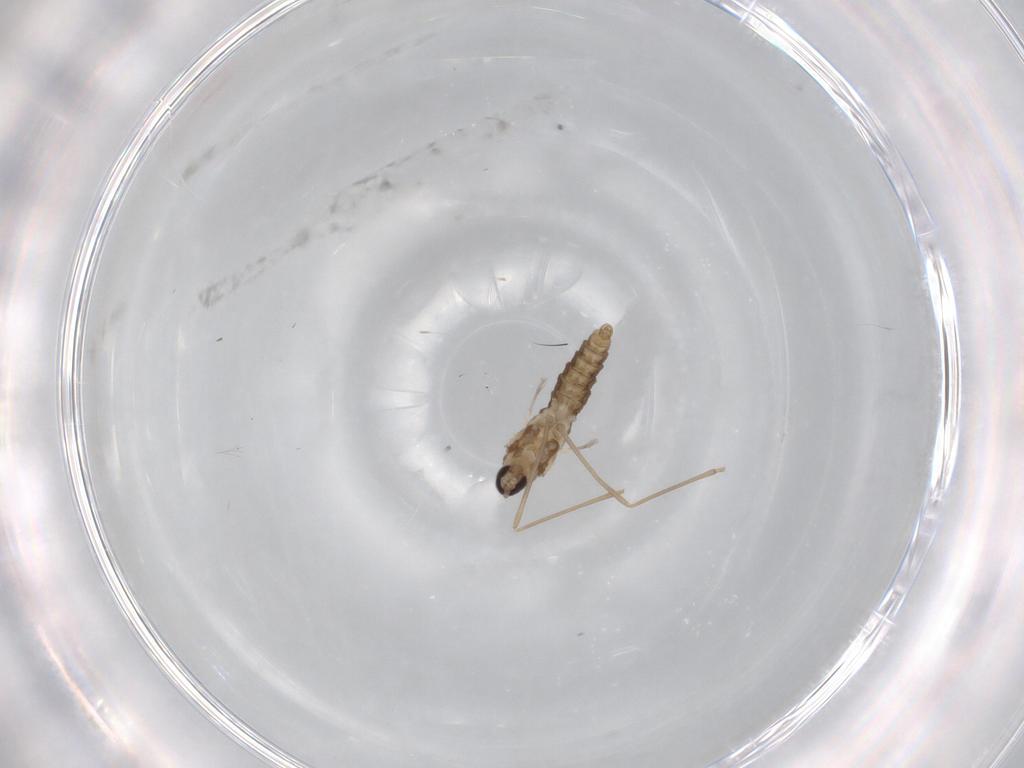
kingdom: Animalia
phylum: Arthropoda
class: Insecta
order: Diptera
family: Cecidomyiidae
